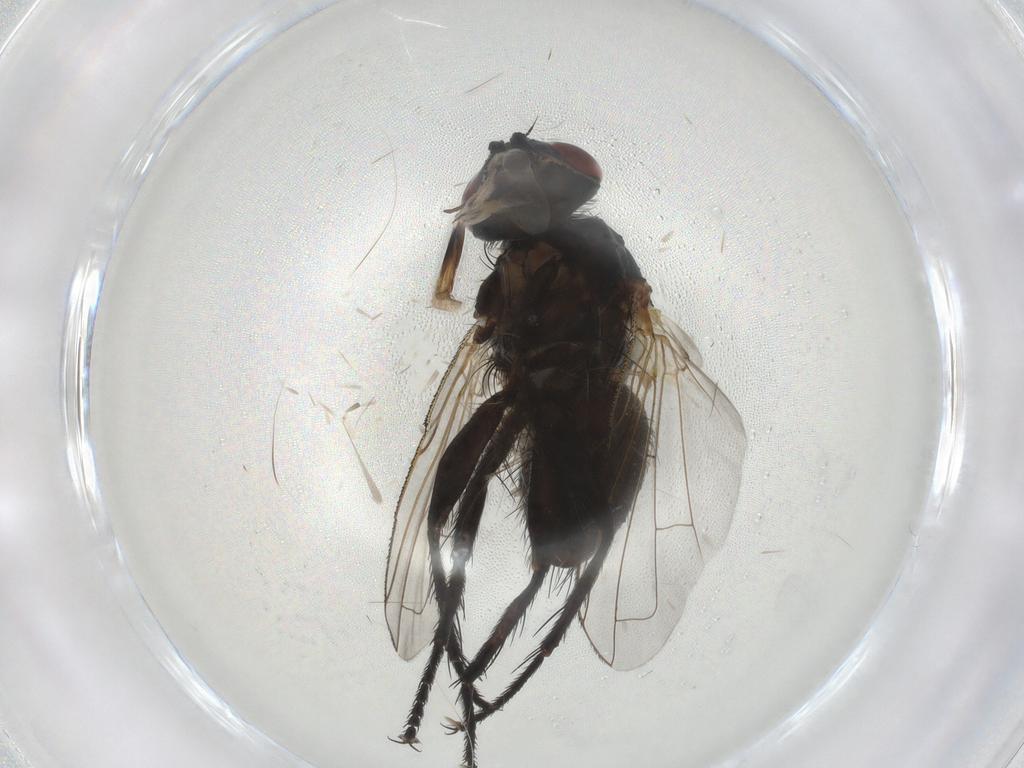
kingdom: Animalia
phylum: Arthropoda
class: Insecta
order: Diptera
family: Tachinidae
